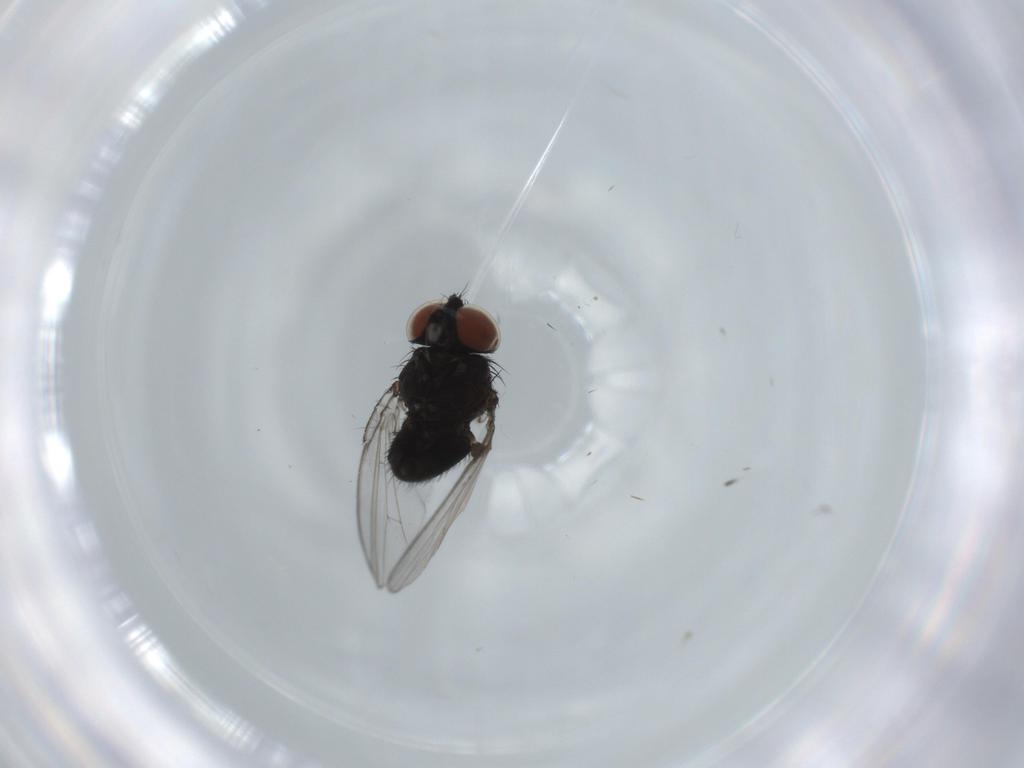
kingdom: Animalia
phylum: Arthropoda
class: Insecta
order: Diptera
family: Milichiidae
